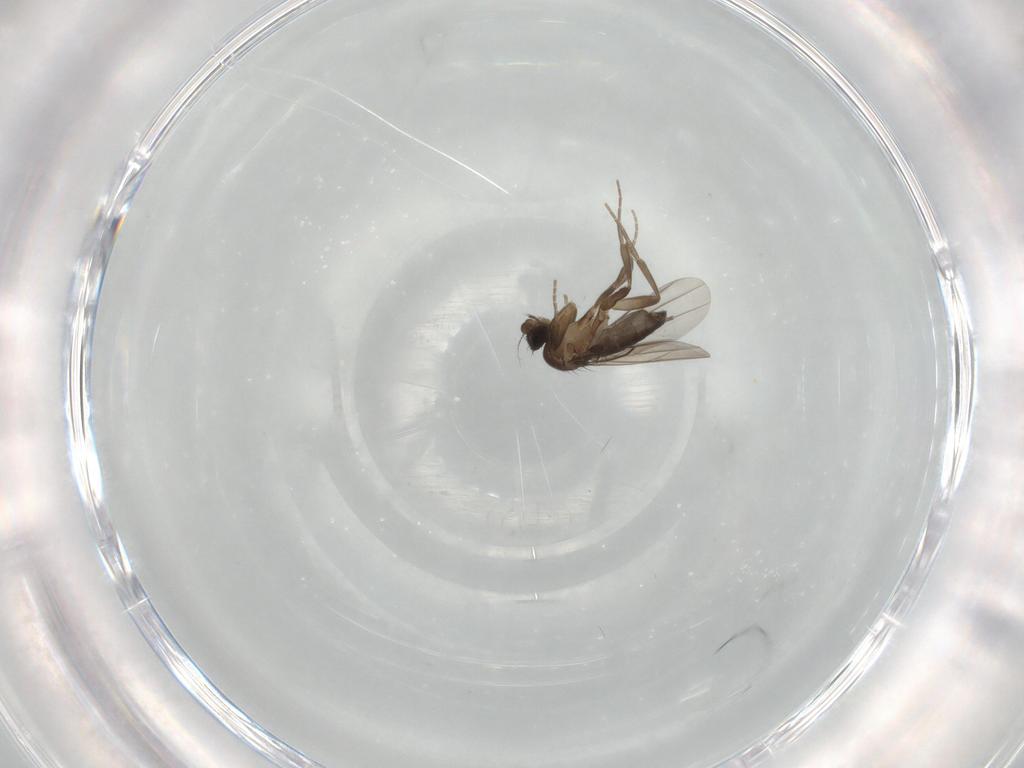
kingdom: Animalia
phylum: Arthropoda
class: Insecta
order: Diptera
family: Phoridae
